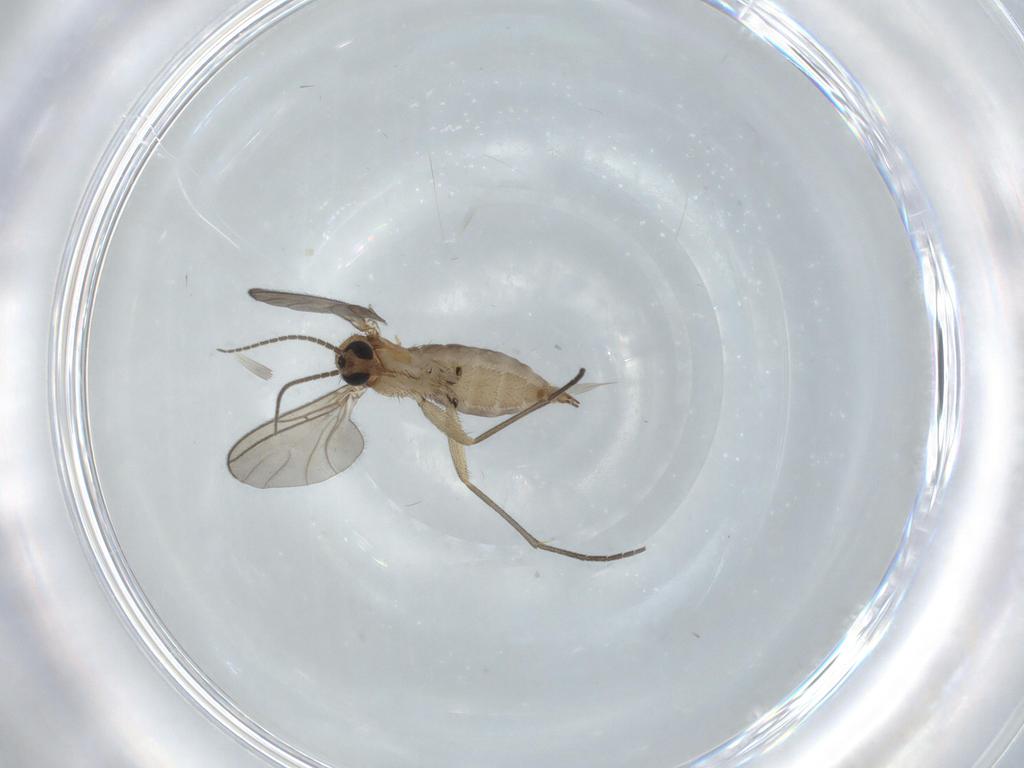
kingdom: Animalia
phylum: Arthropoda
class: Insecta
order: Diptera
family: Sciaridae
